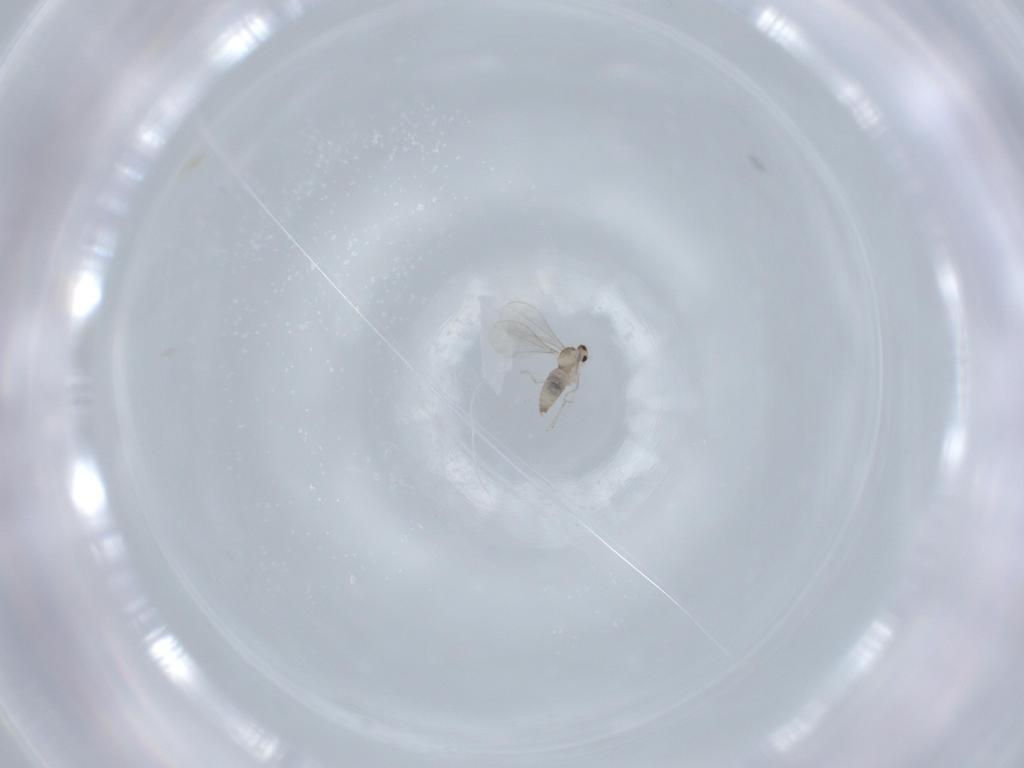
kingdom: Animalia
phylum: Arthropoda
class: Insecta
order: Diptera
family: Cecidomyiidae
